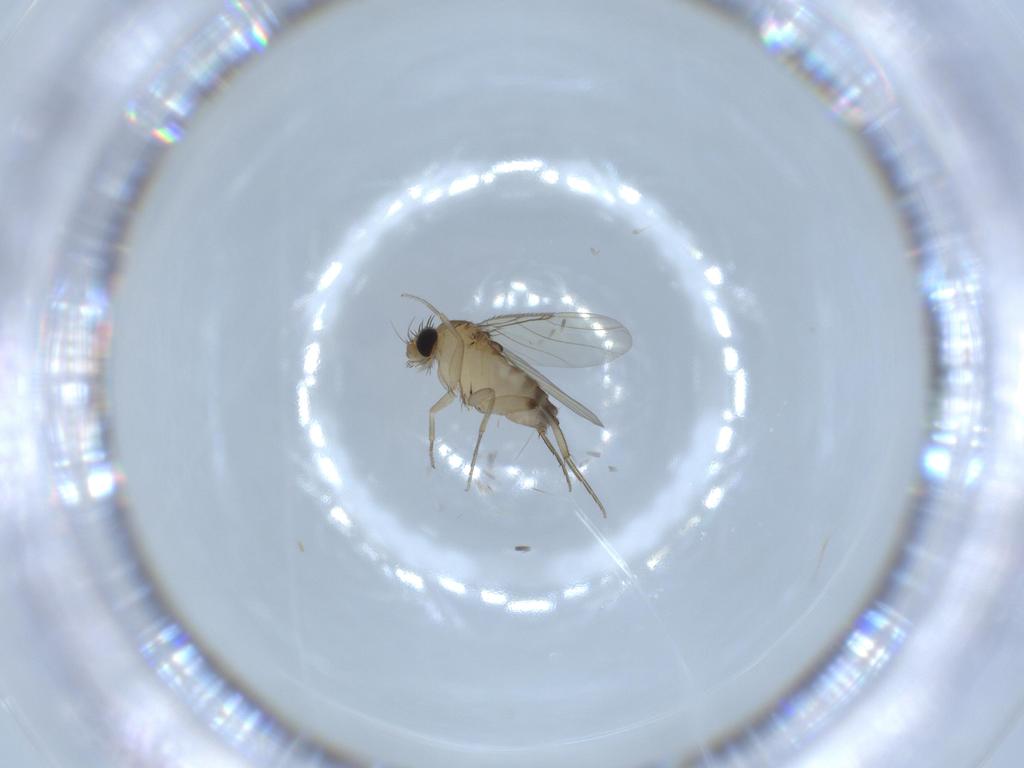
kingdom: Animalia
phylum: Arthropoda
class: Insecta
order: Diptera
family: Phoridae
